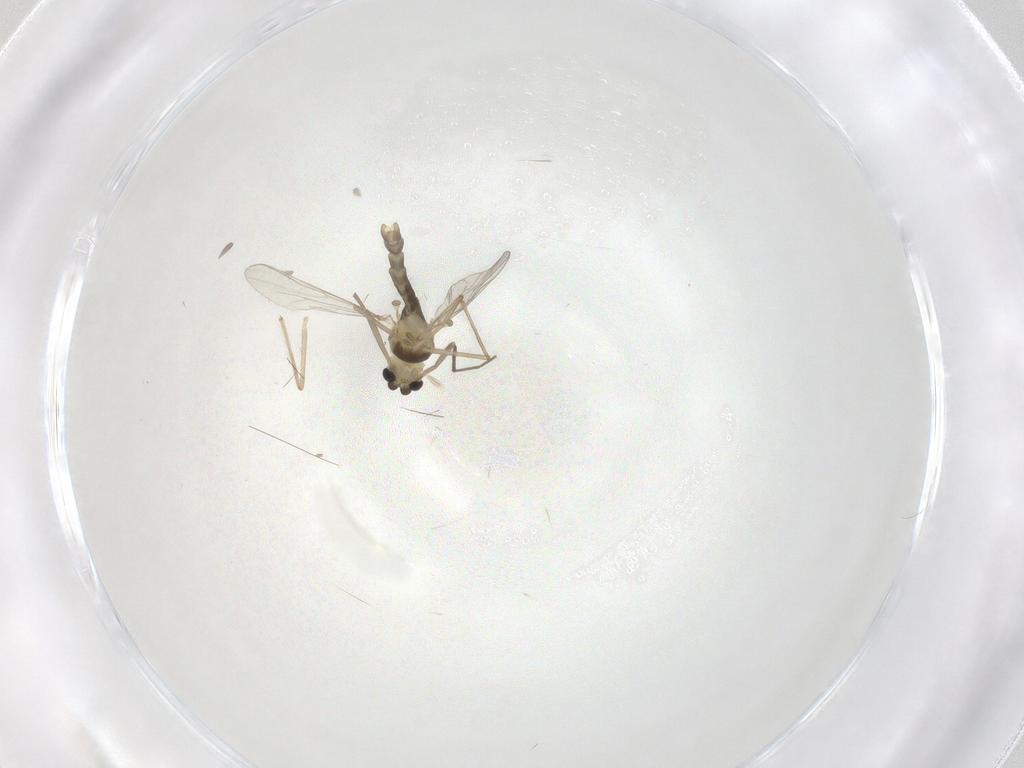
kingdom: Animalia
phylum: Arthropoda
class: Insecta
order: Diptera
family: Chironomidae
